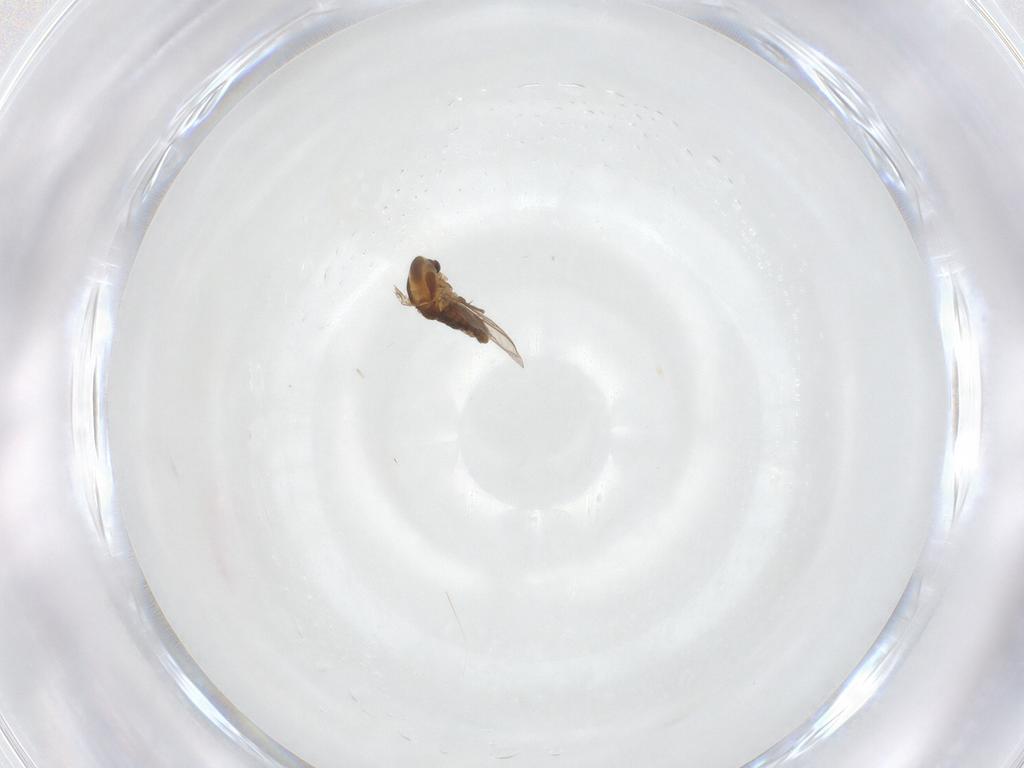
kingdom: Animalia
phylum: Arthropoda
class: Insecta
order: Diptera
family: Chironomidae
